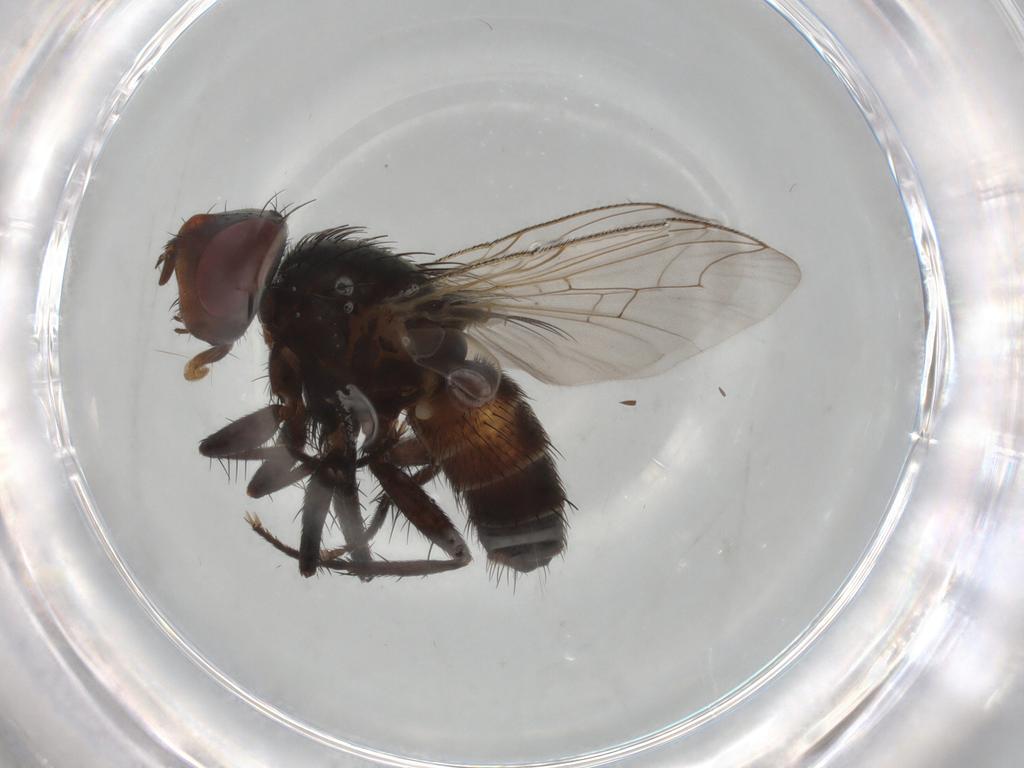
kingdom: Animalia
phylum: Arthropoda
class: Insecta
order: Diptera
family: Sarcophagidae
